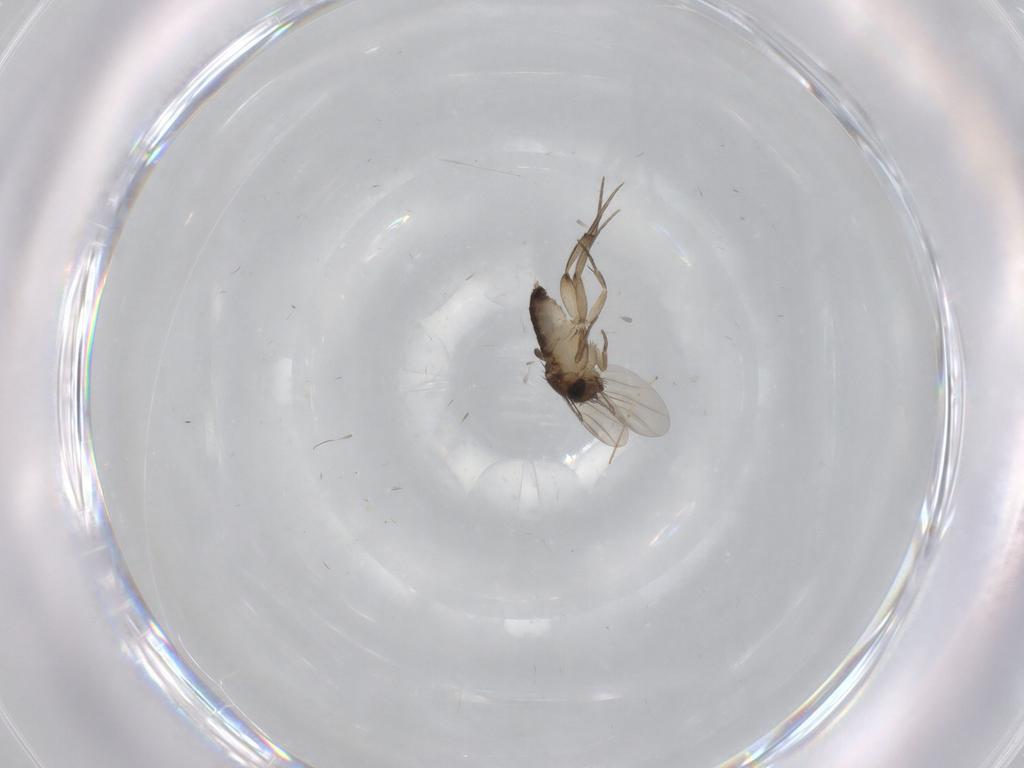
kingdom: Animalia
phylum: Arthropoda
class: Insecta
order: Diptera
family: Phoridae
